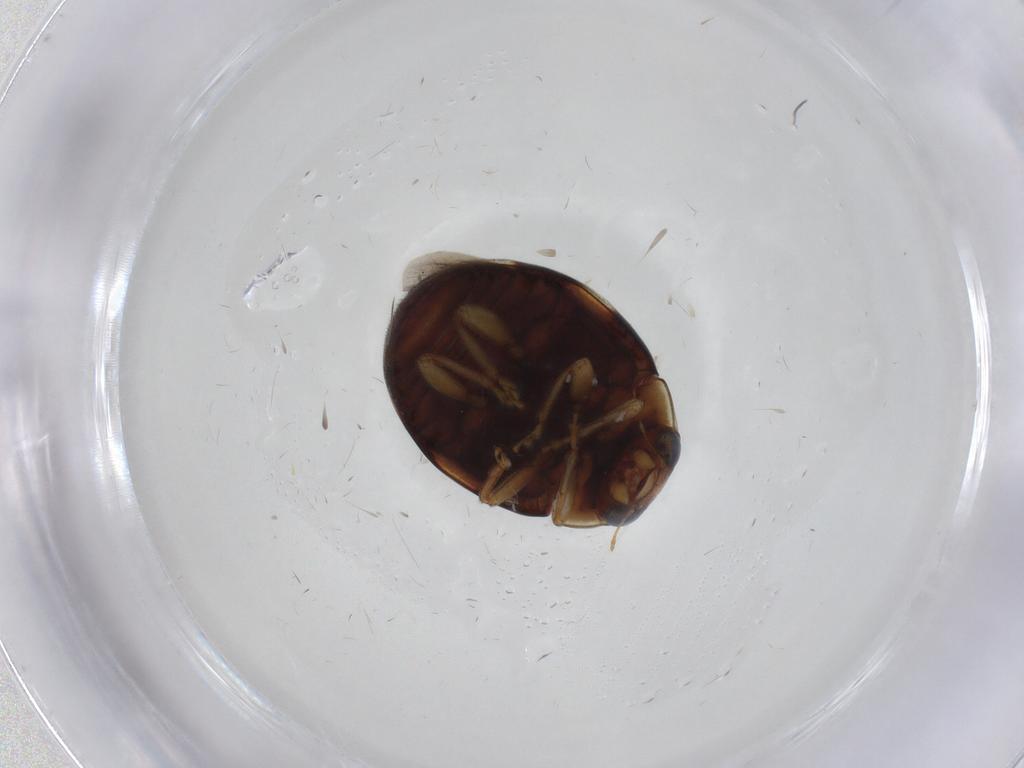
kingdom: Animalia
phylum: Arthropoda
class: Insecta
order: Coleoptera
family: Coccinellidae
